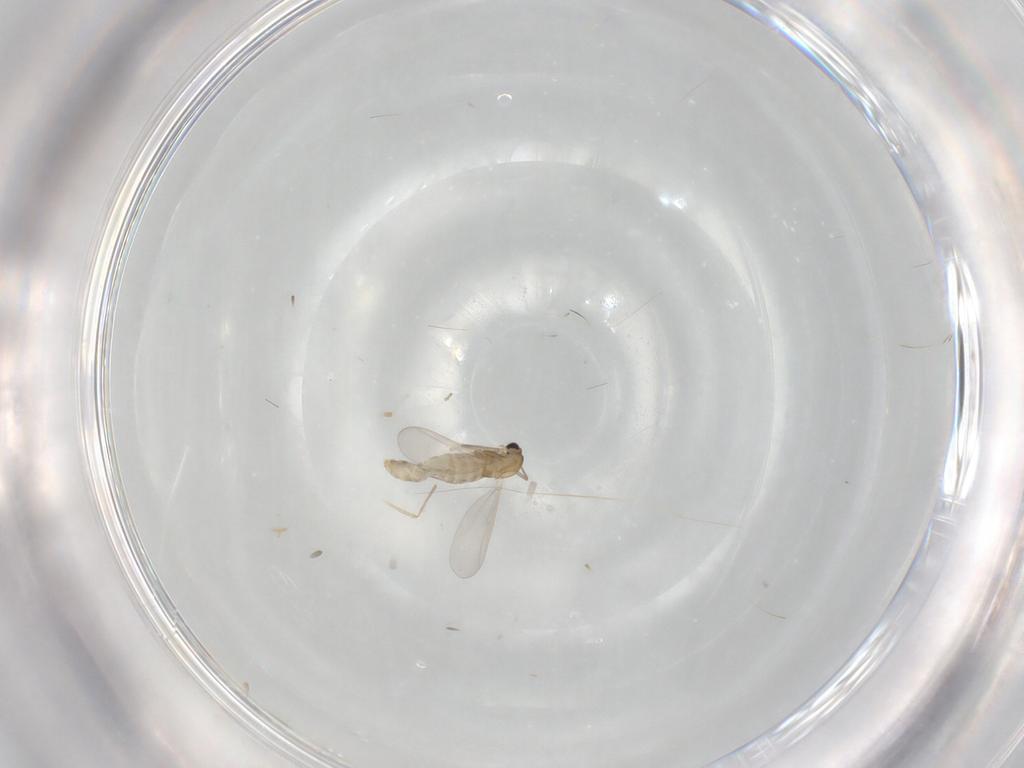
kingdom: Animalia
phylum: Arthropoda
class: Insecta
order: Diptera
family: Chironomidae
